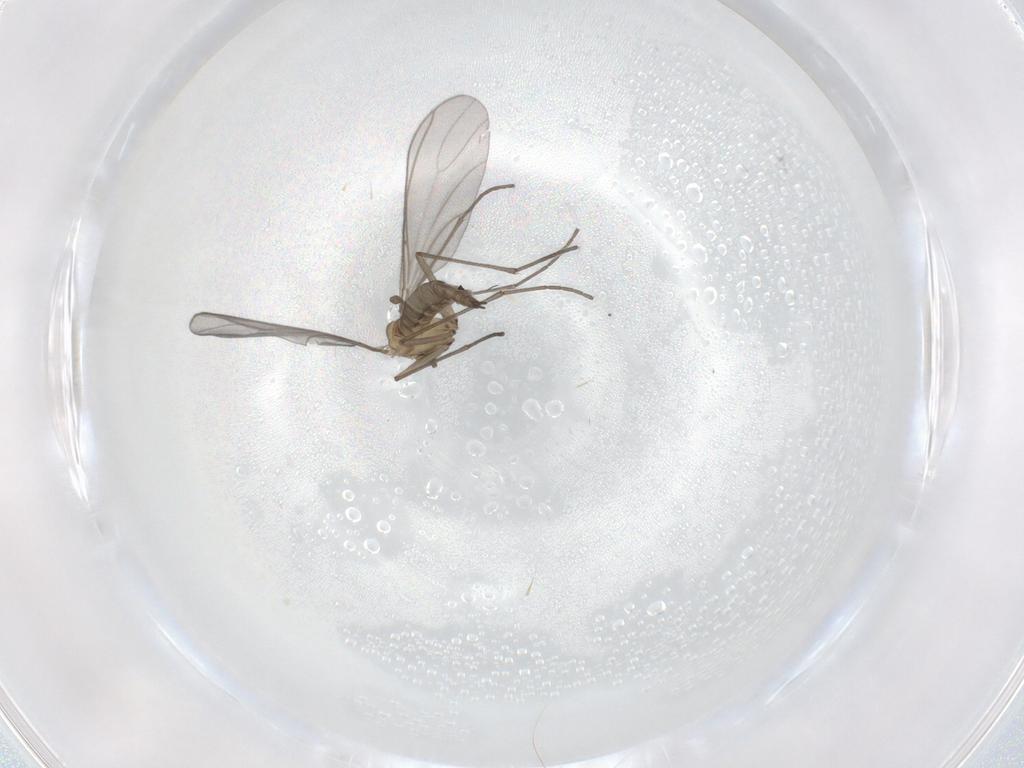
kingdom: Animalia
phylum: Arthropoda
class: Insecta
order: Diptera
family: Sciaridae
